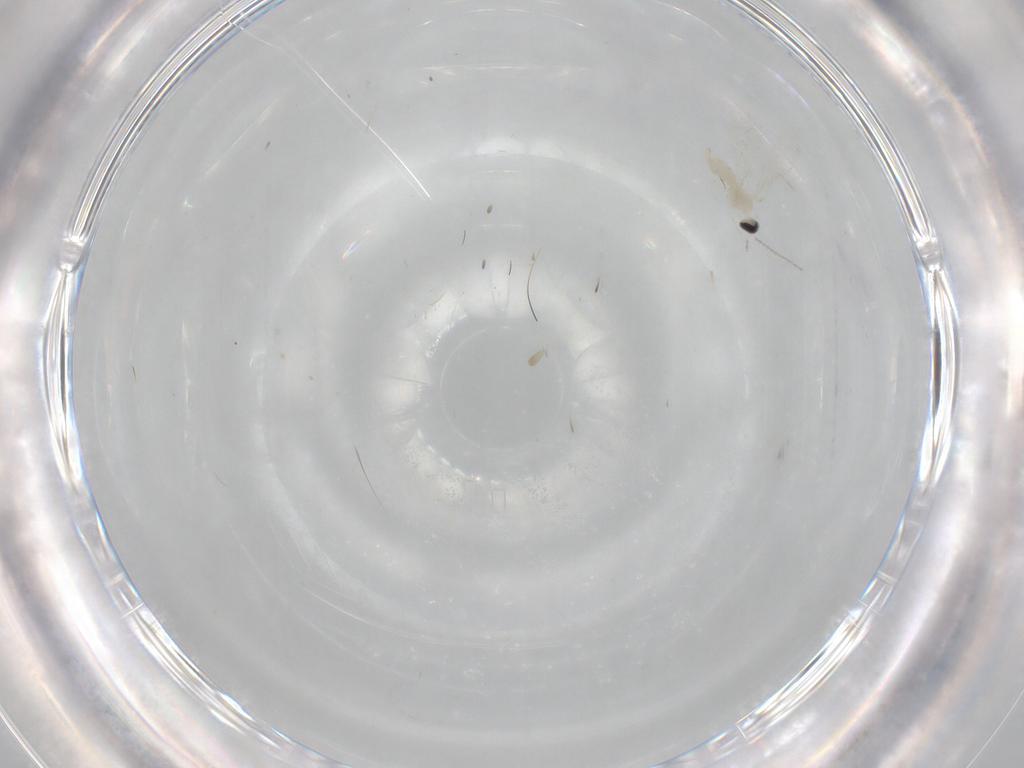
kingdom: Animalia
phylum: Arthropoda
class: Insecta
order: Diptera
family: Cecidomyiidae
